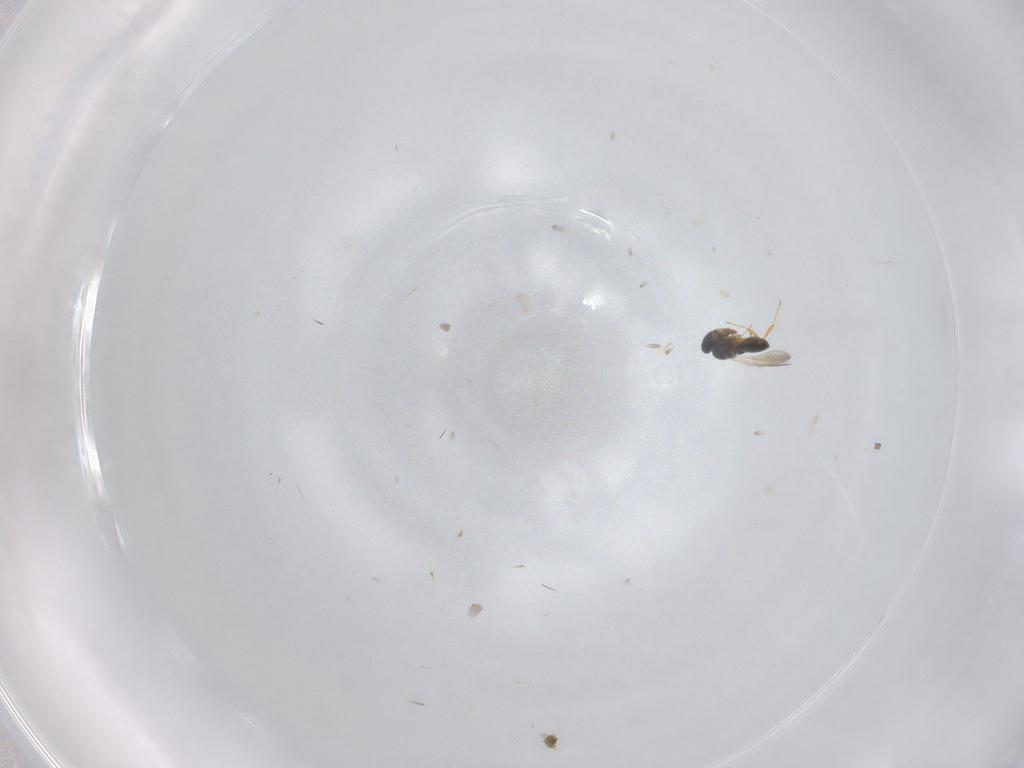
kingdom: Animalia
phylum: Arthropoda
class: Insecta
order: Hymenoptera
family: Platygastridae
